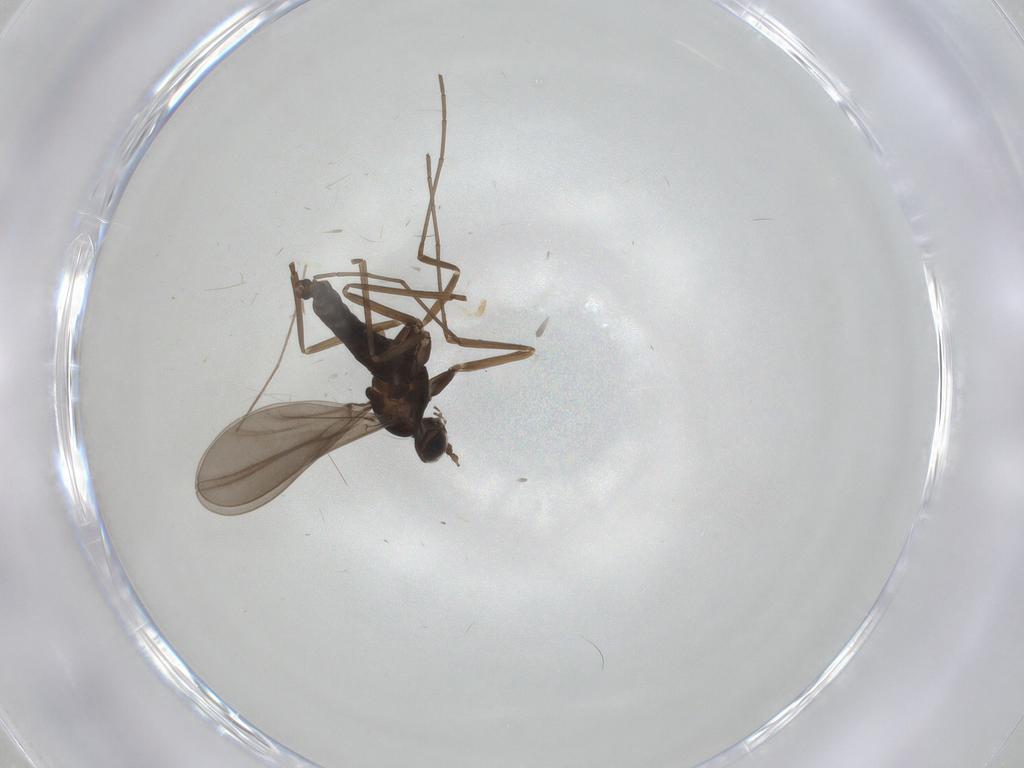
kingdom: Animalia
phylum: Arthropoda
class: Insecta
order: Diptera
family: Cecidomyiidae
